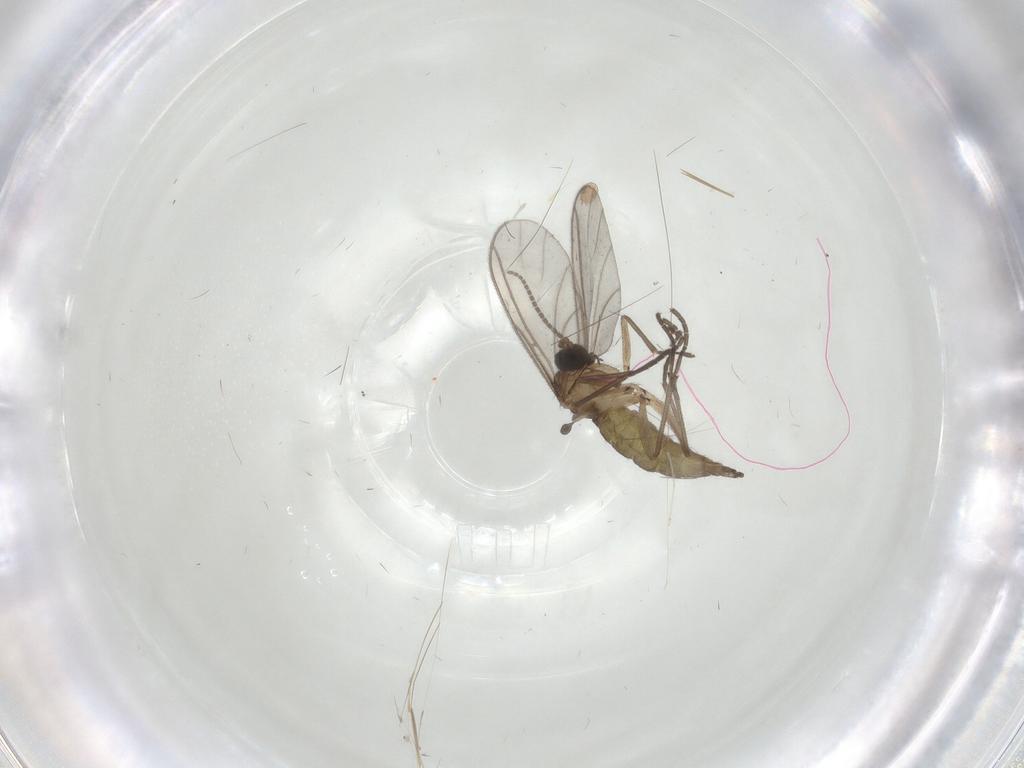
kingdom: Animalia
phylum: Arthropoda
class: Insecta
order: Diptera
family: Sciaridae
